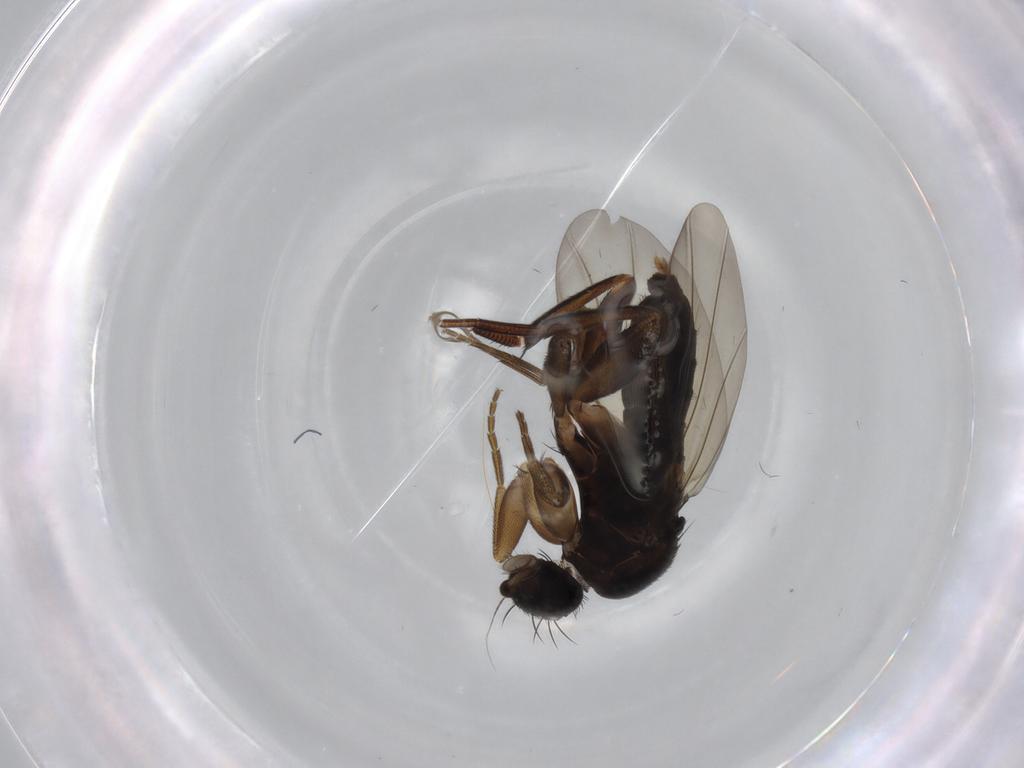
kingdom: Animalia
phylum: Arthropoda
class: Insecta
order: Diptera
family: Phoridae
